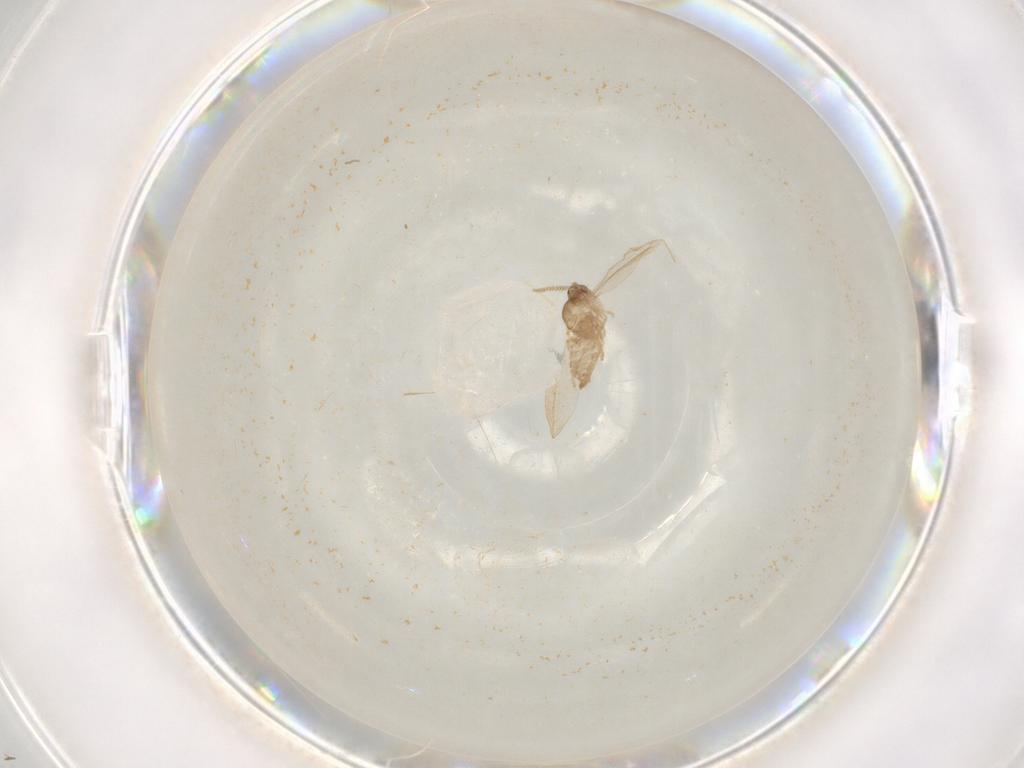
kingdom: Animalia
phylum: Arthropoda
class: Insecta
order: Diptera
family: Cecidomyiidae
